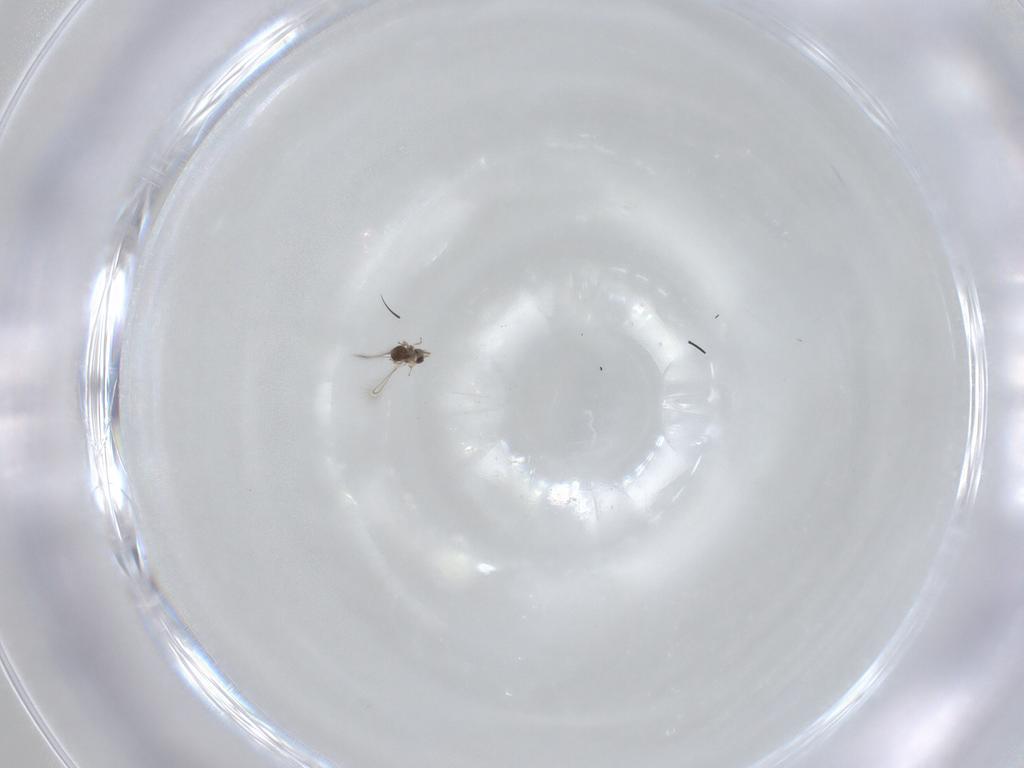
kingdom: Animalia
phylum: Arthropoda
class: Insecta
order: Hymenoptera
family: Mymaridae
